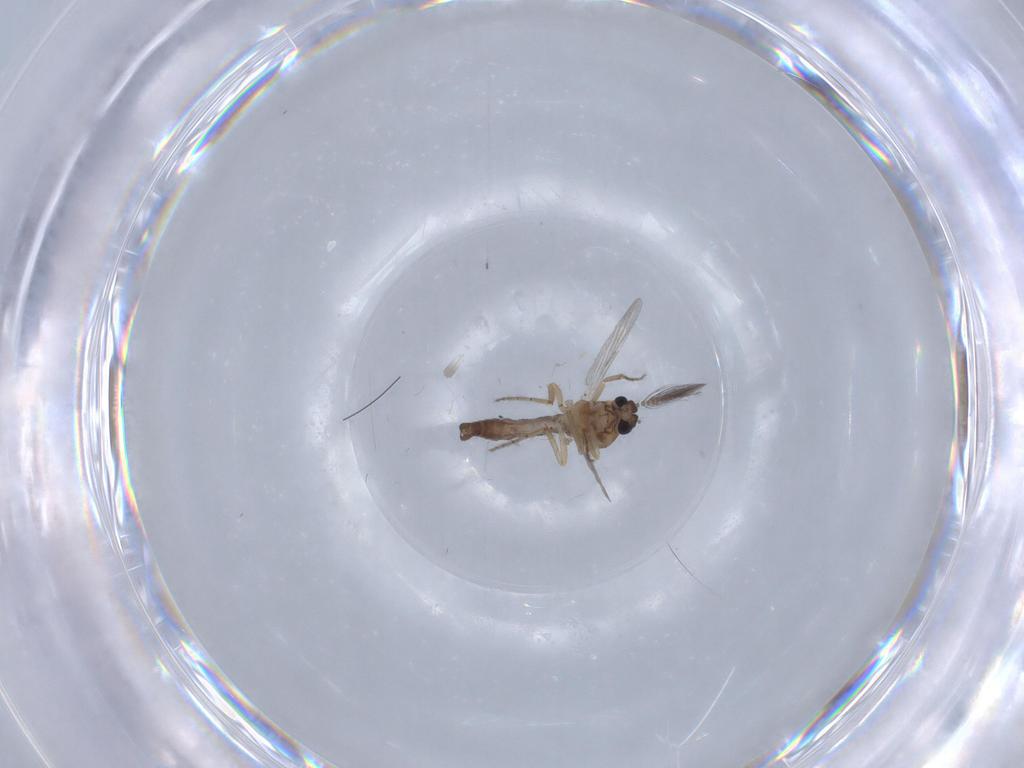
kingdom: Animalia
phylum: Arthropoda
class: Insecta
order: Diptera
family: Ceratopogonidae
